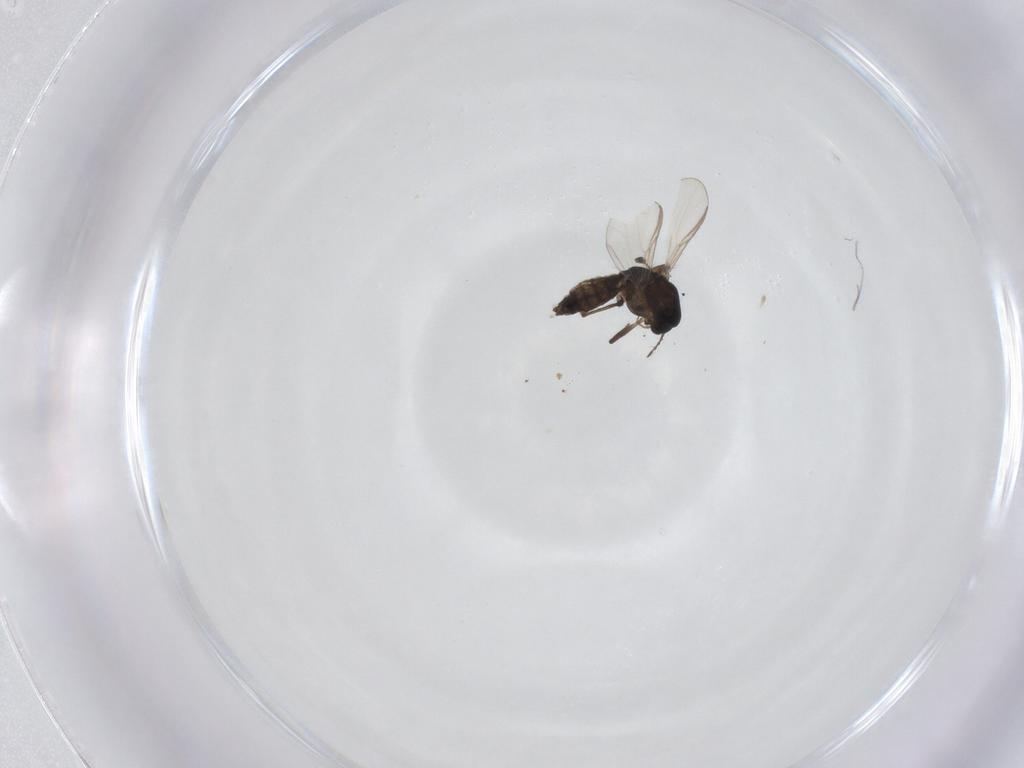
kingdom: Animalia
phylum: Arthropoda
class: Insecta
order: Diptera
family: Chironomidae
